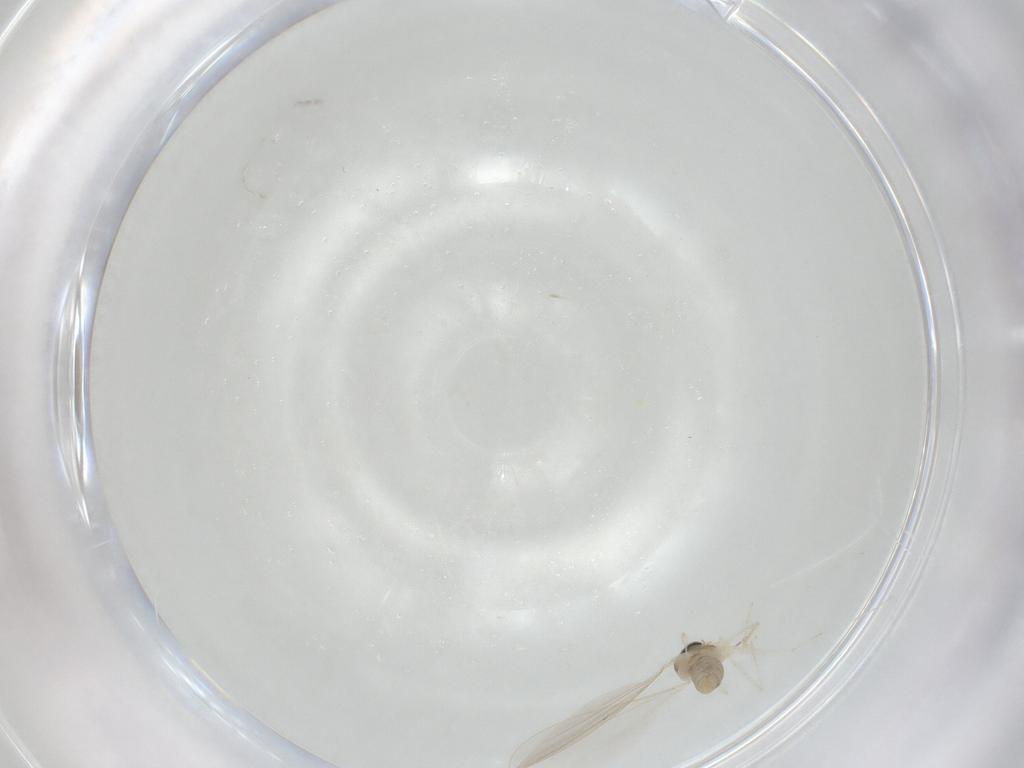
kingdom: Animalia
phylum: Arthropoda
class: Insecta
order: Diptera
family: Cecidomyiidae
